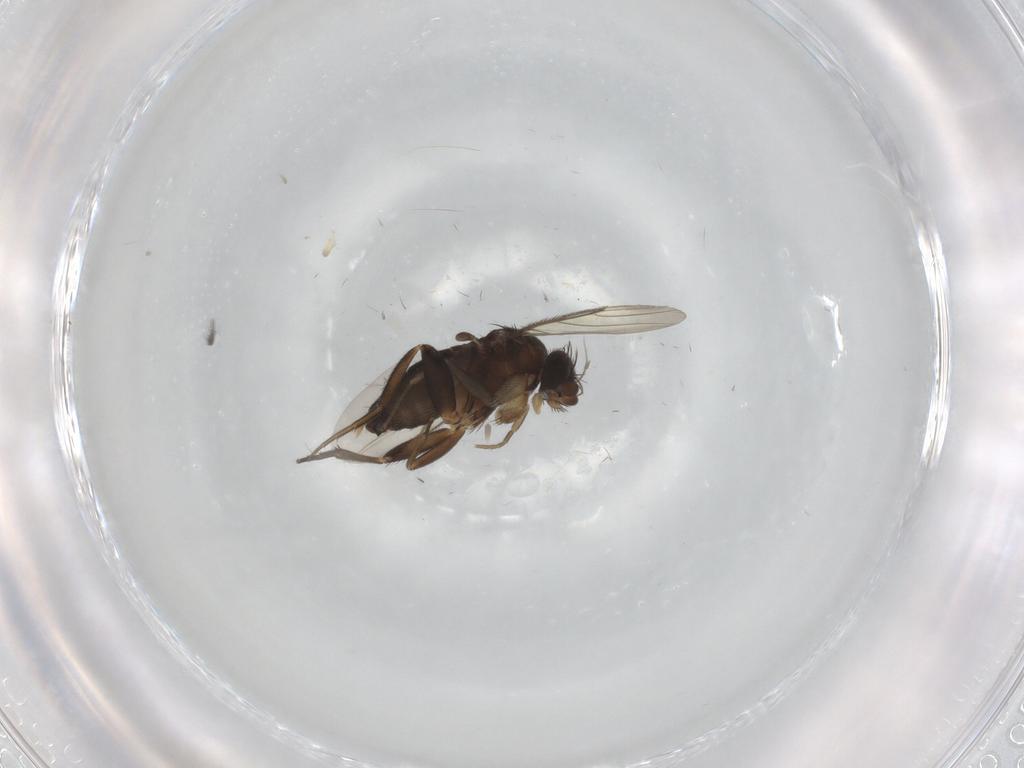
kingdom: Animalia
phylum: Arthropoda
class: Insecta
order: Diptera
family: Phoridae
